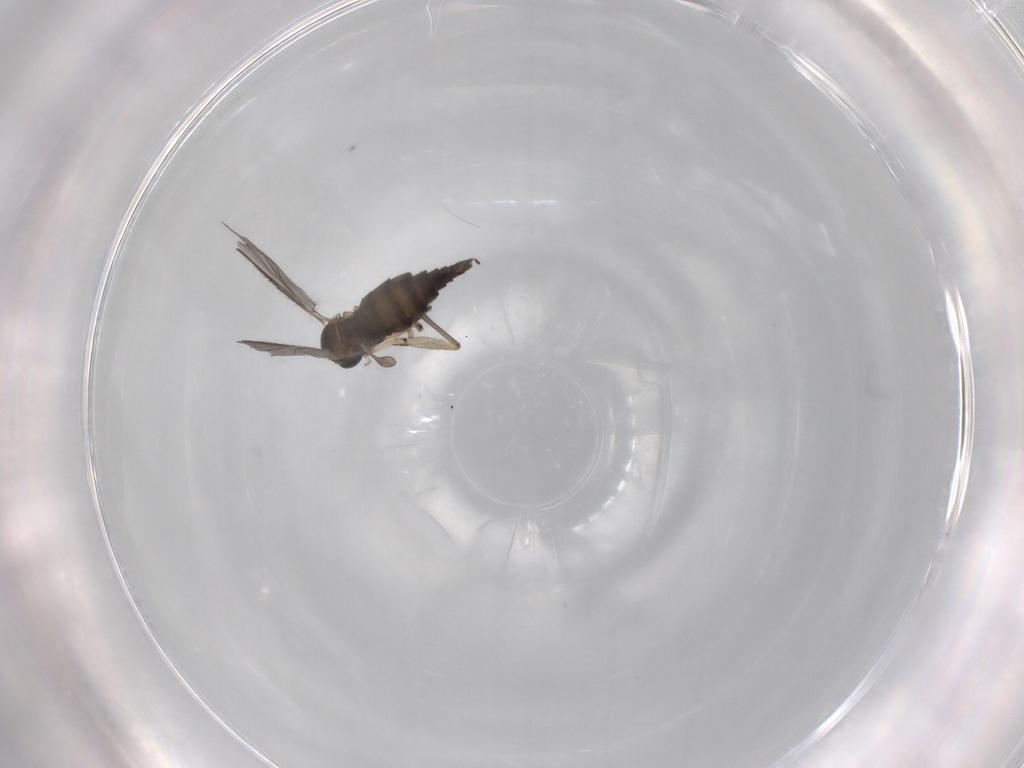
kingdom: Animalia
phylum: Arthropoda
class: Insecta
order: Diptera
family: Sciaridae
